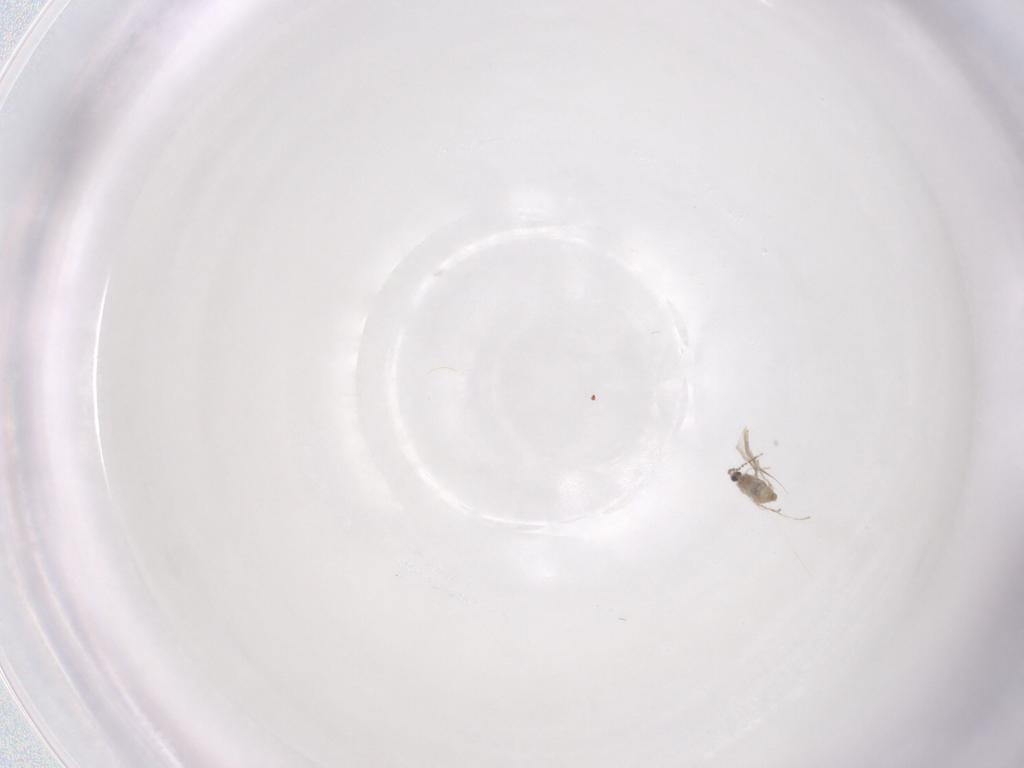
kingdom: Animalia
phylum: Arthropoda
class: Insecta
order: Diptera
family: Cecidomyiidae
